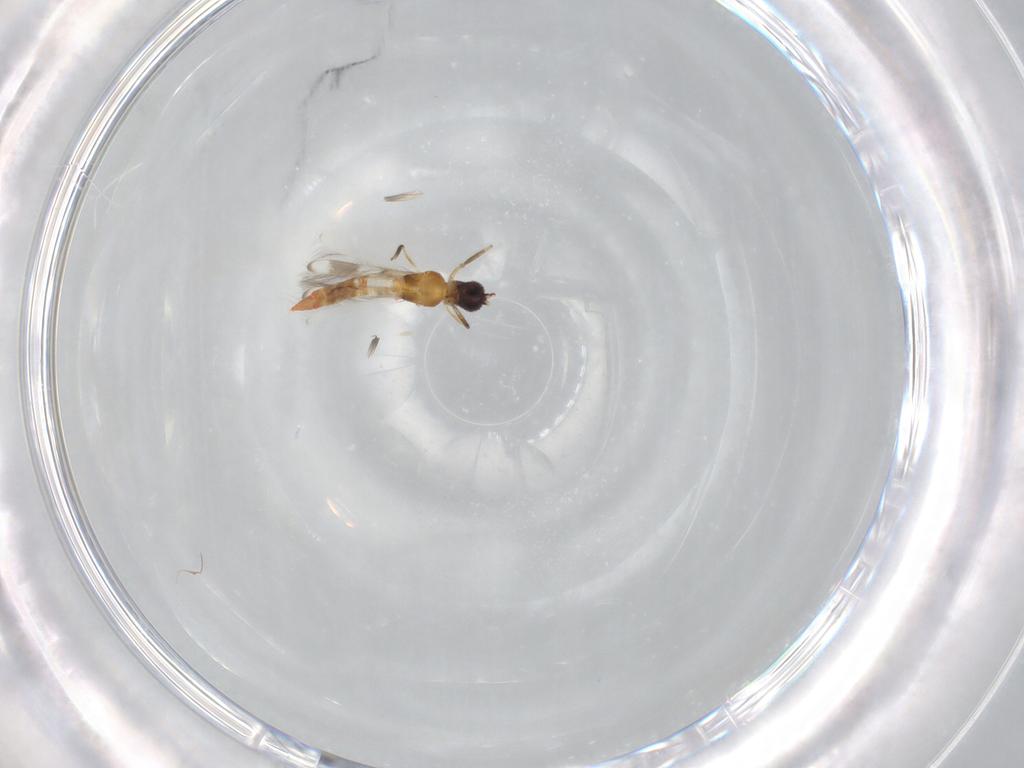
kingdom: Animalia
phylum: Arthropoda
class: Insecta
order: Thysanoptera
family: Aeolothripidae
